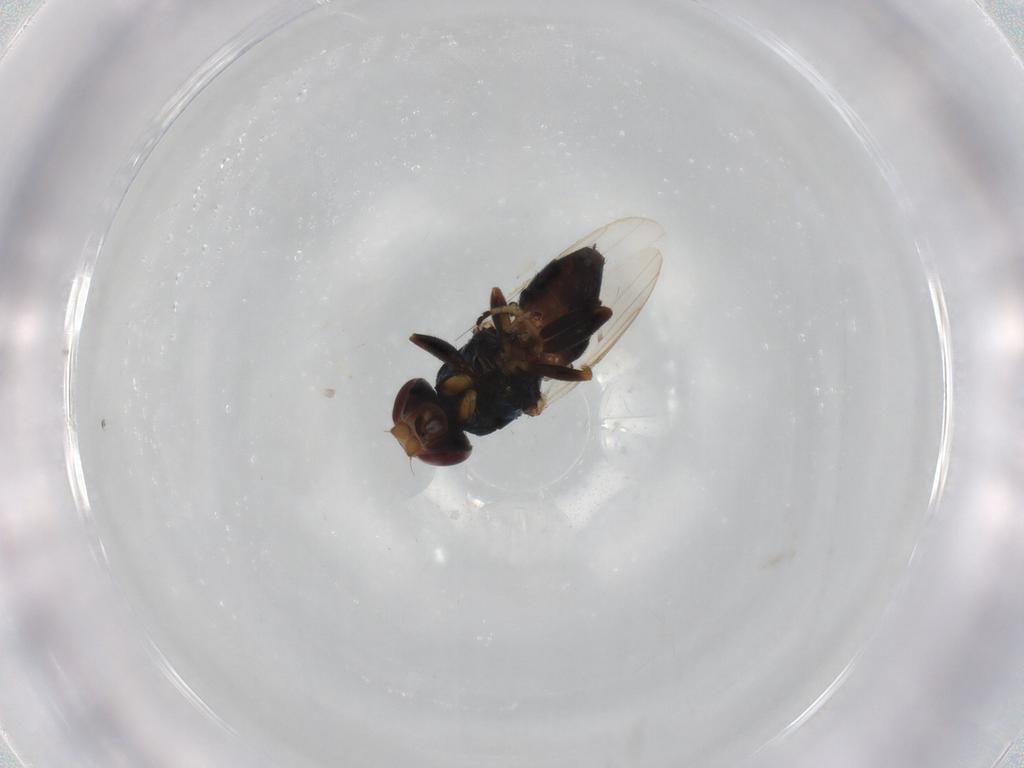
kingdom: Animalia
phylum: Arthropoda
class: Insecta
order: Diptera
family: Chloropidae
